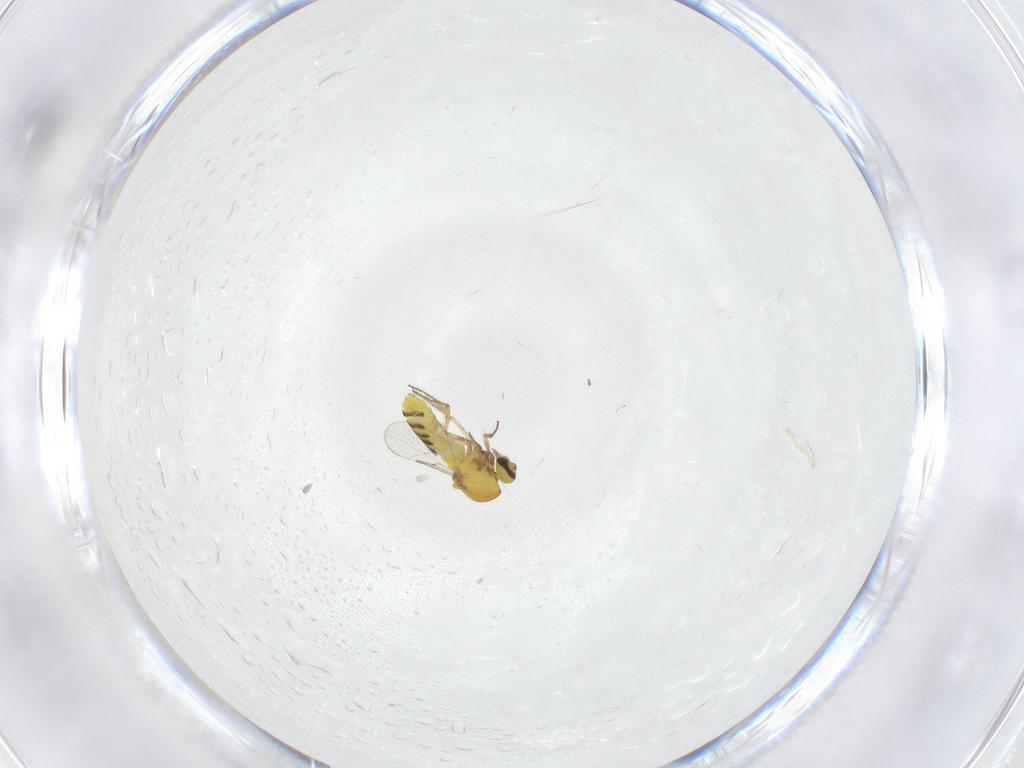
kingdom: Animalia
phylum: Arthropoda
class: Insecta
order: Diptera
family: Ceratopogonidae
